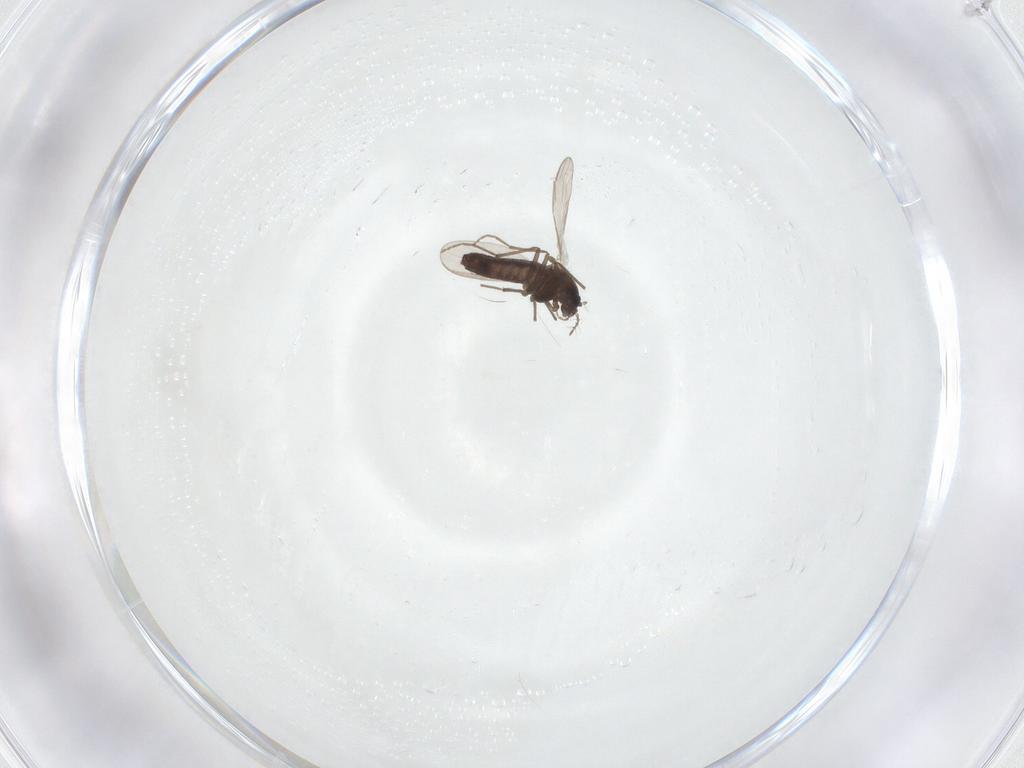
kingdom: Animalia
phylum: Arthropoda
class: Insecta
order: Diptera
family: Chironomidae
